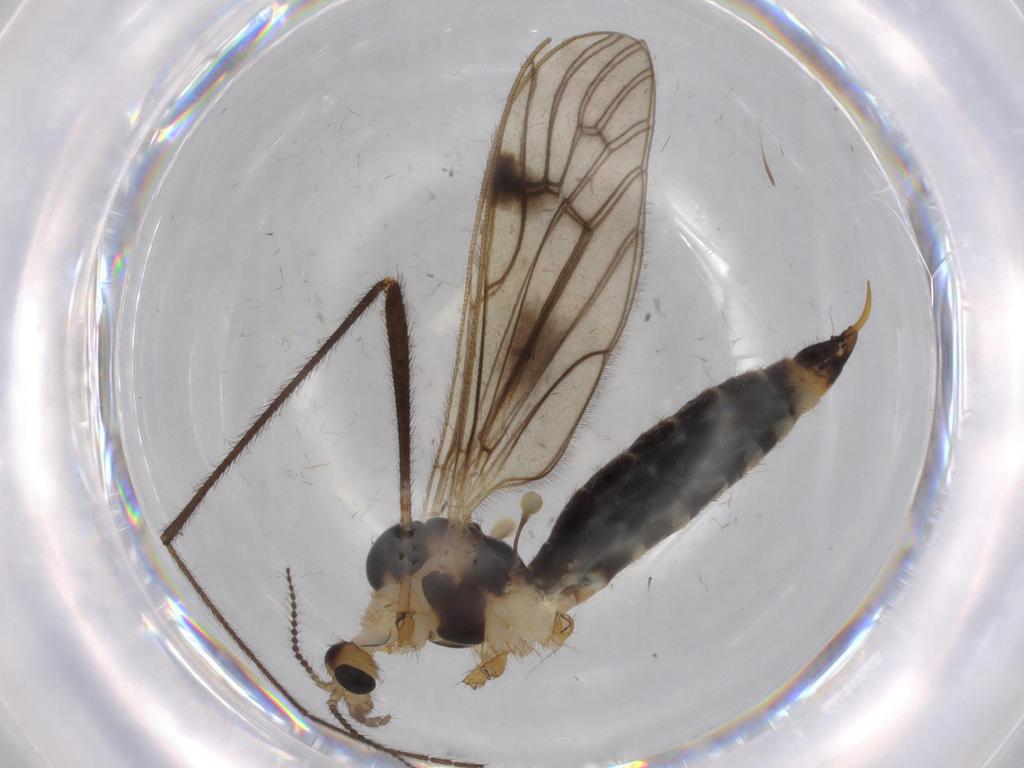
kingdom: Animalia
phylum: Arthropoda
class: Insecta
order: Diptera
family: Limoniidae
